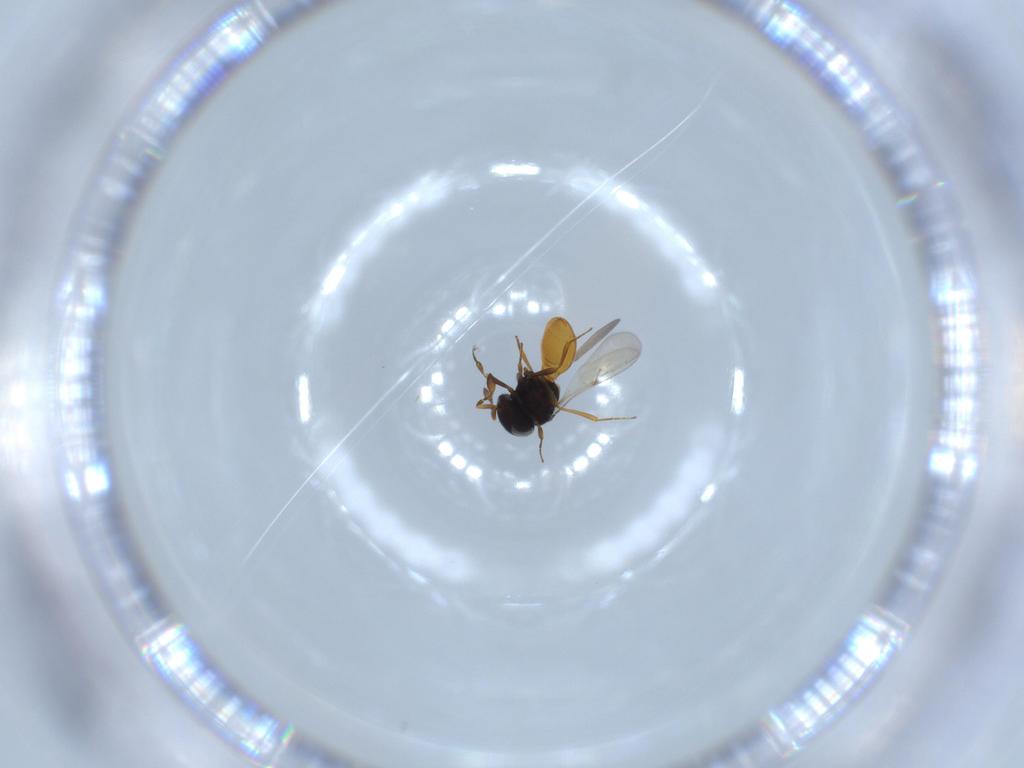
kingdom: Animalia
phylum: Arthropoda
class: Insecta
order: Hymenoptera
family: Scelionidae
